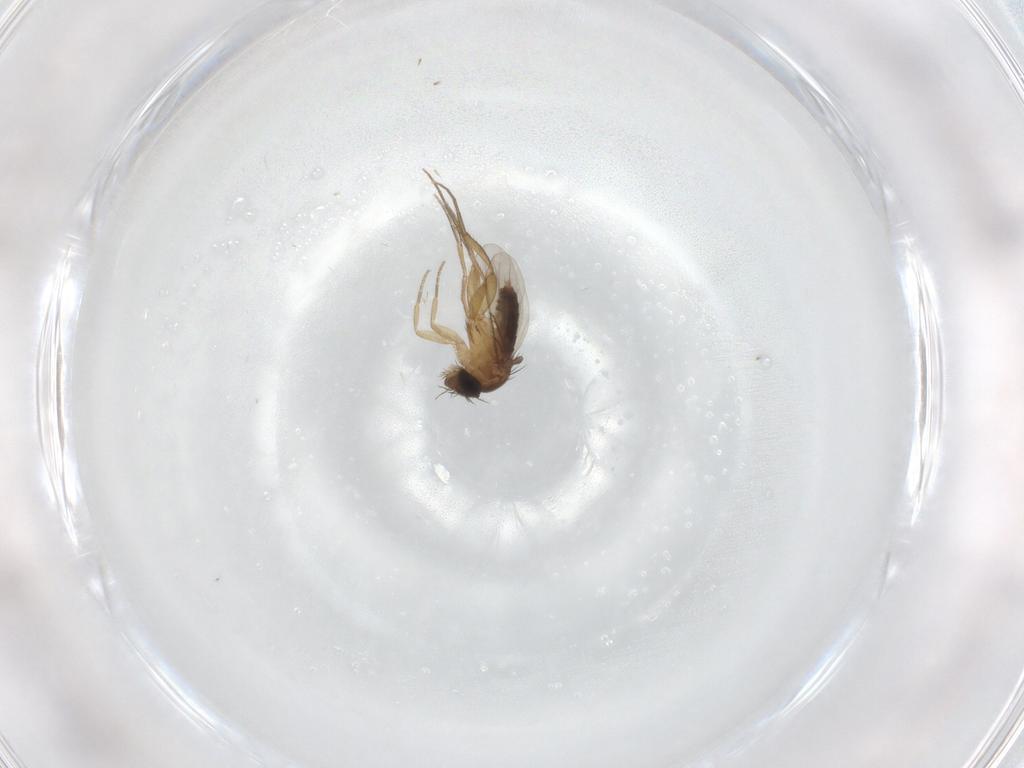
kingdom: Animalia
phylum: Arthropoda
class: Insecta
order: Diptera
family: Phoridae
